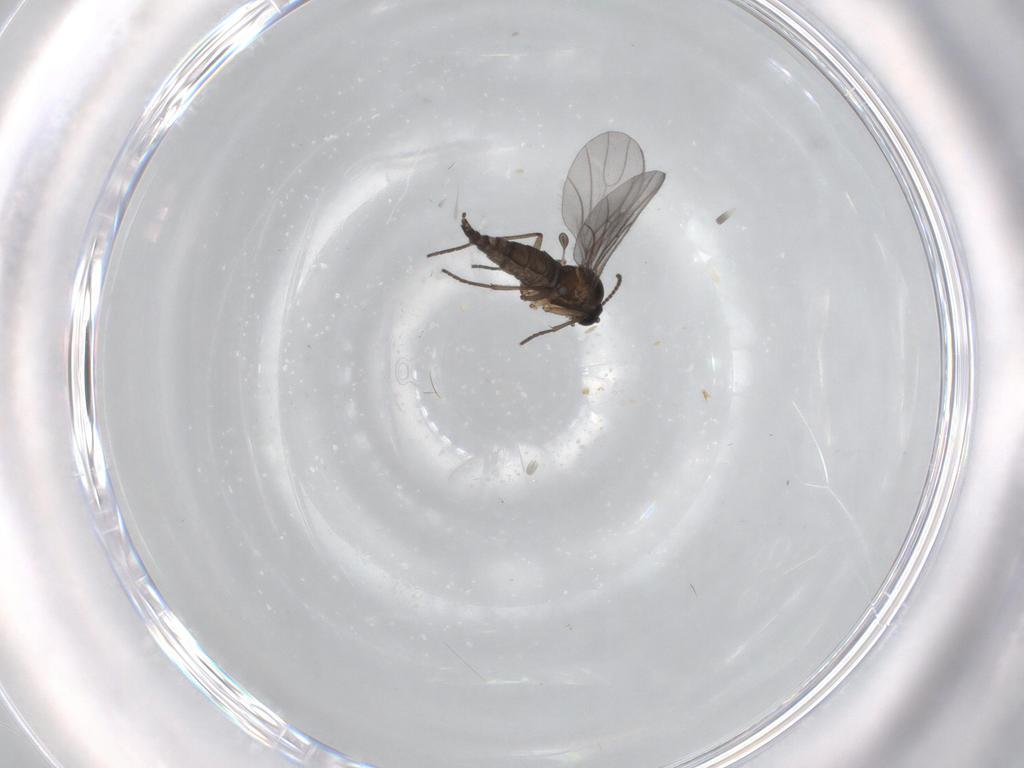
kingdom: Animalia
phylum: Arthropoda
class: Insecta
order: Diptera
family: Sciaridae
